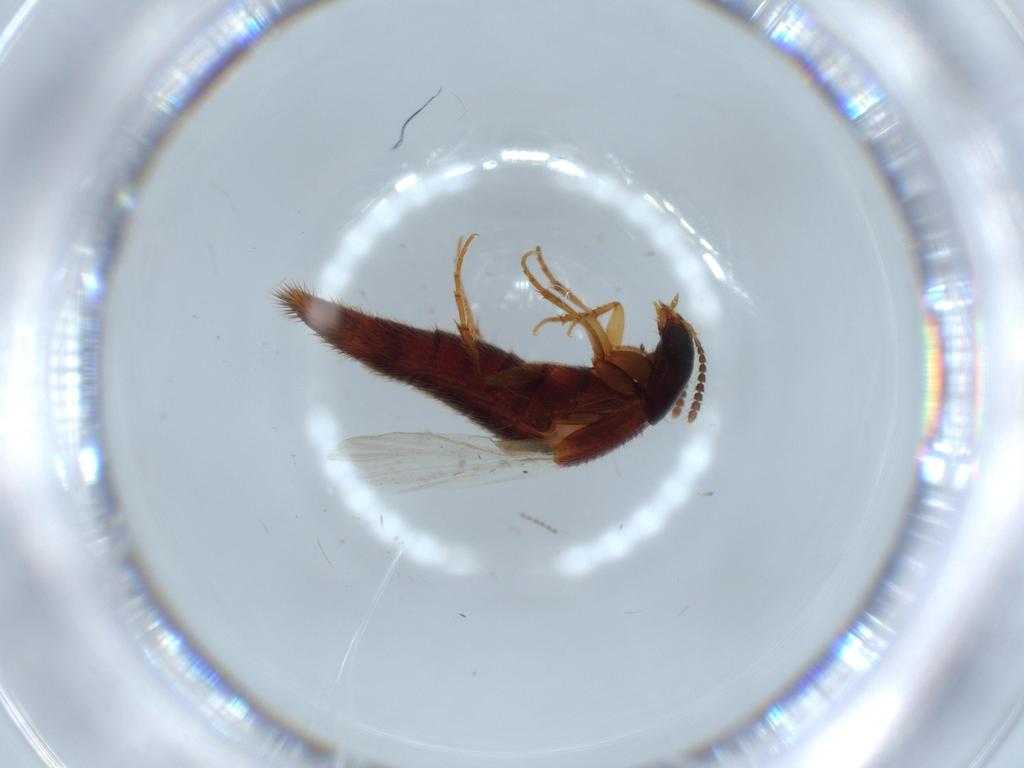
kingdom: Animalia
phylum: Arthropoda
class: Insecta
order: Coleoptera
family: Staphylinidae
